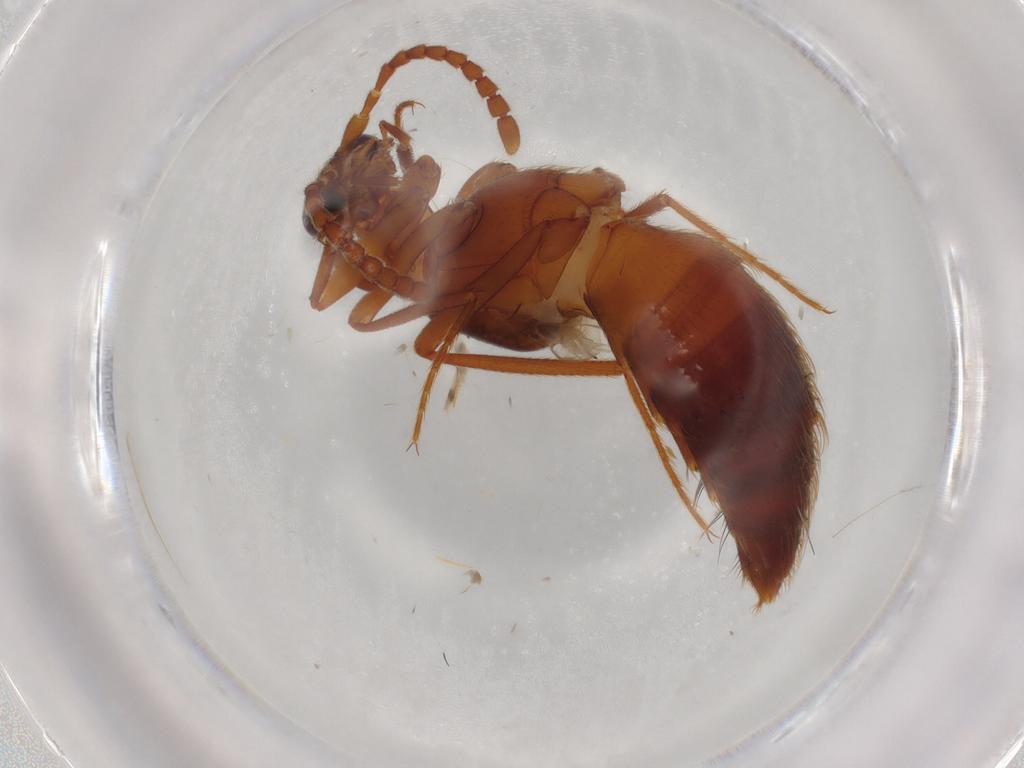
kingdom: Animalia
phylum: Arthropoda
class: Insecta
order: Coleoptera
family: Staphylinidae
